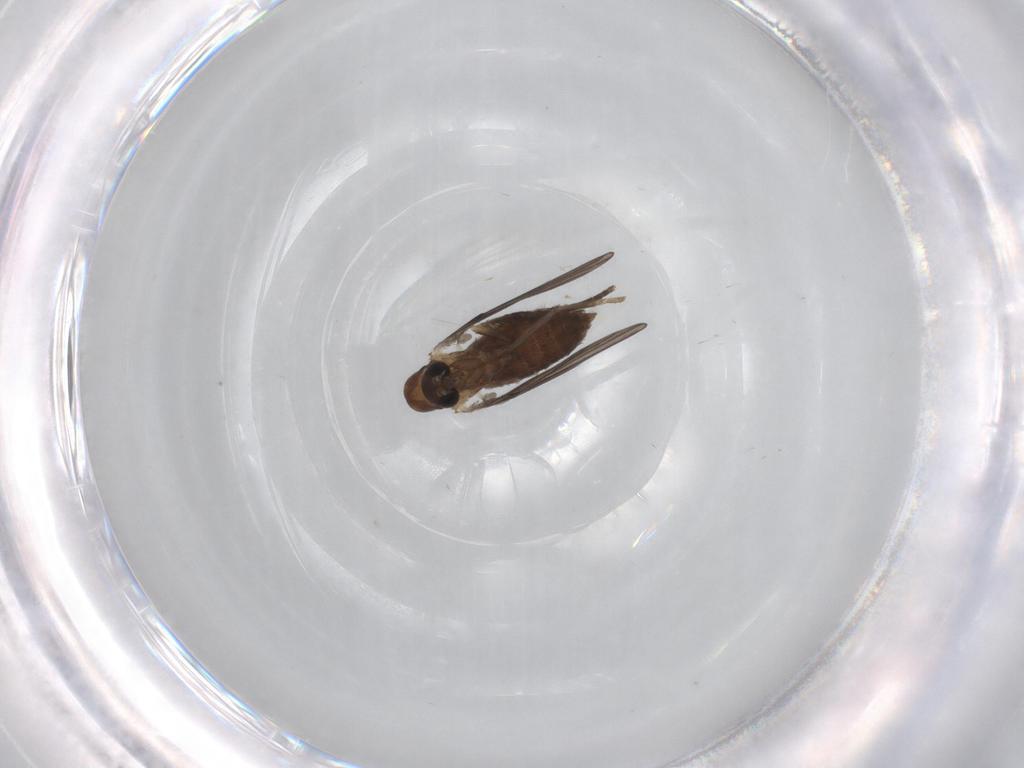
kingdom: Animalia
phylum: Arthropoda
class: Insecta
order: Diptera
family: Psychodidae
